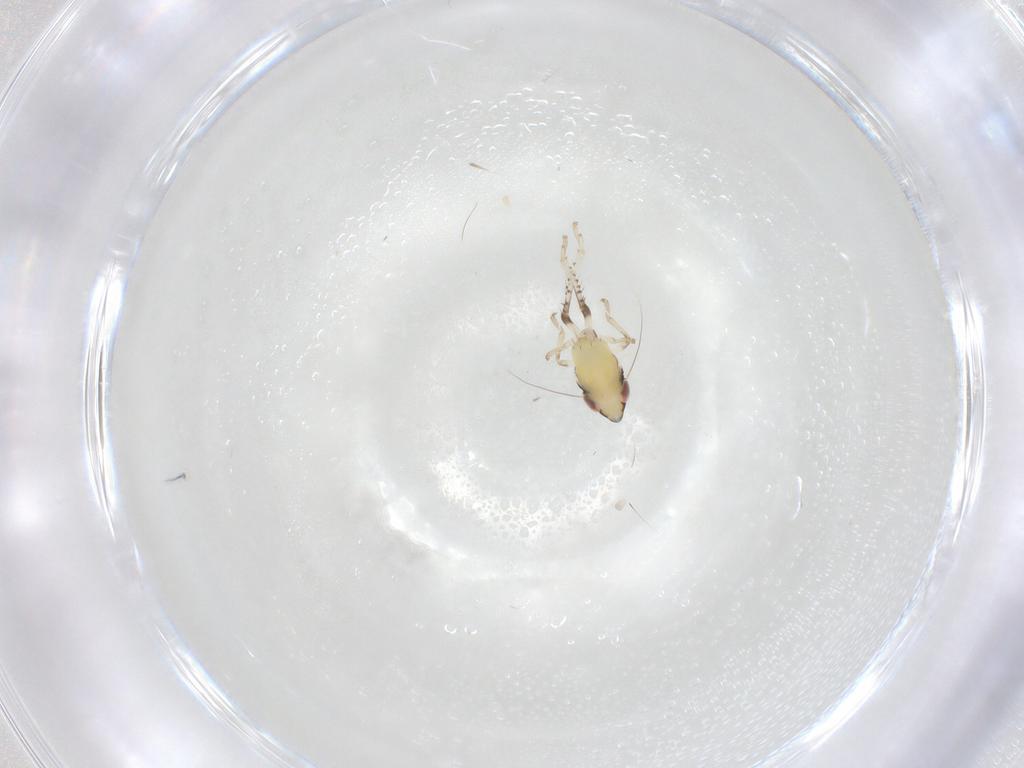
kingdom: Animalia
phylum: Arthropoda
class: Insecta
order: Hemiptera
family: Cicadellidae
